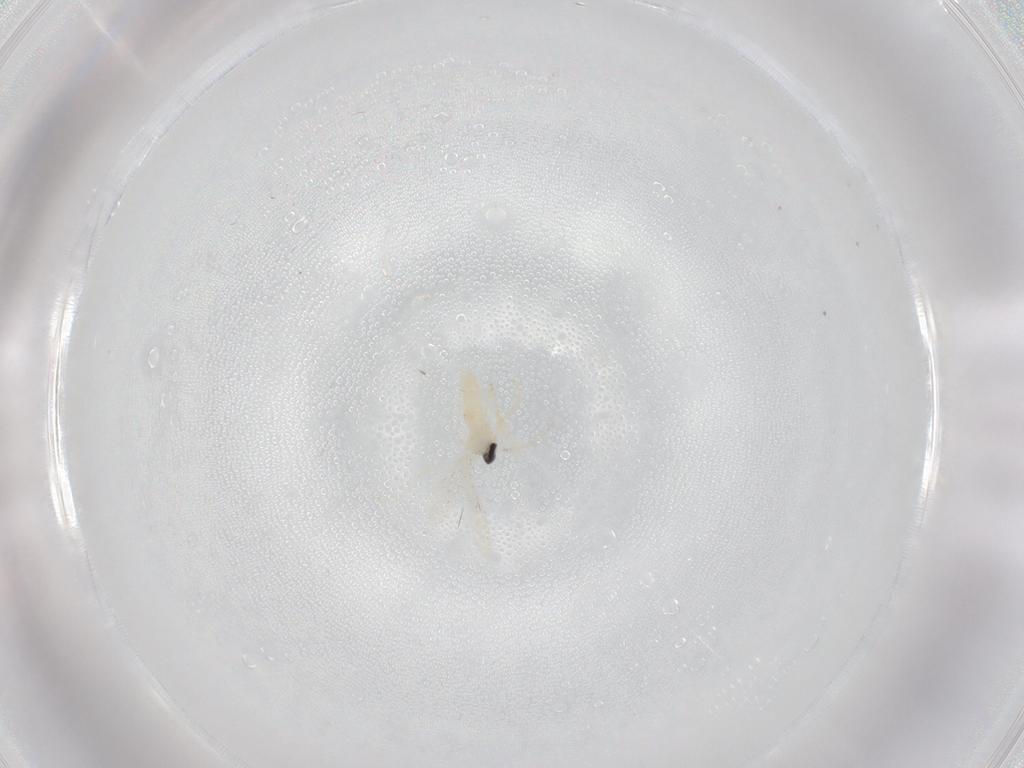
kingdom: Animalia
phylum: Arthropoda
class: Insecta
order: Diptera
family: Cecidomyiidae
